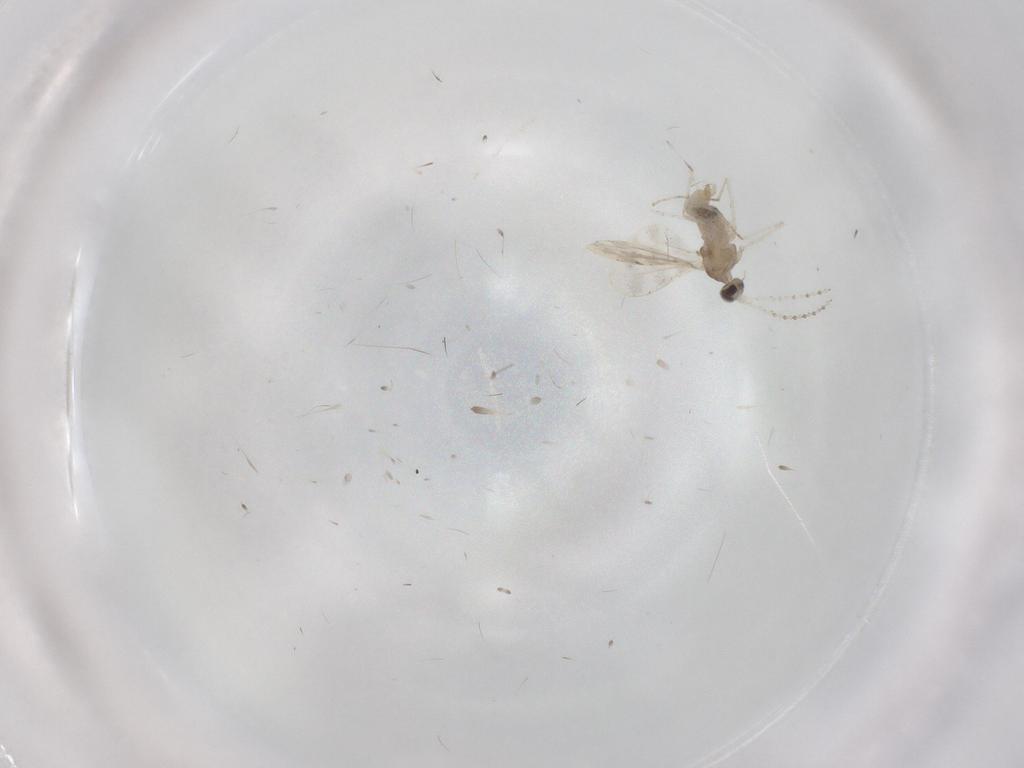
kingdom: Animalia
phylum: Arthropoda
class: Insecta
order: Diptera
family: Cecidomyiidae
